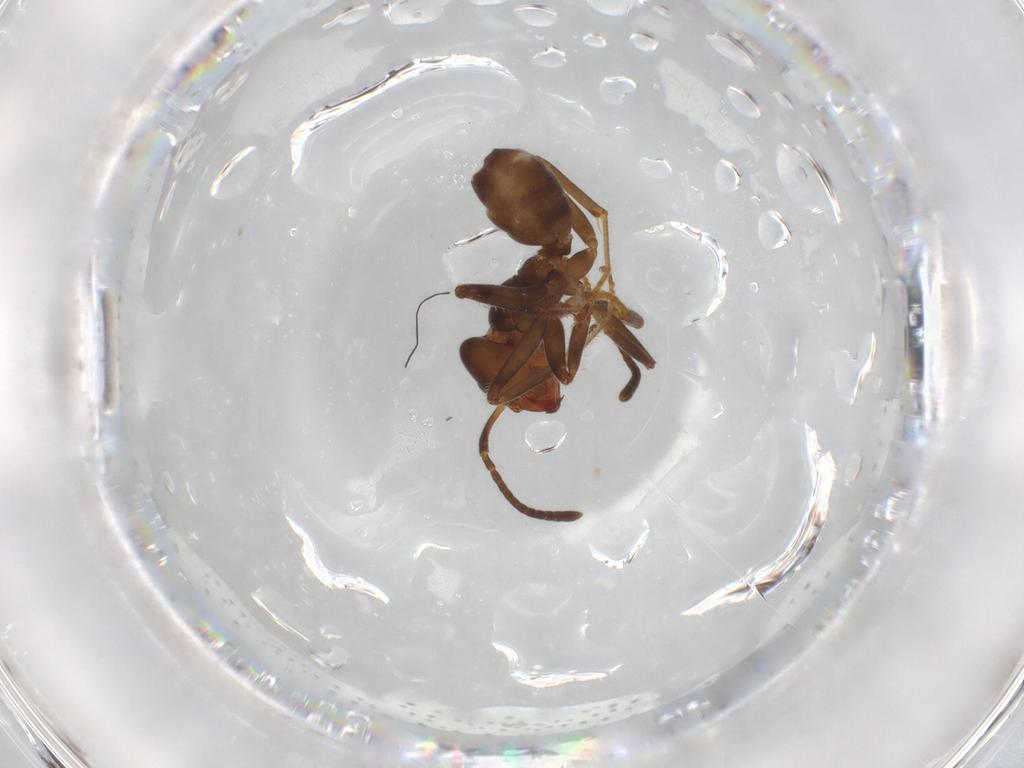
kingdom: Animalia
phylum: Arthropoda
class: Insecta
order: Hymenoptera
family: Formicidae
